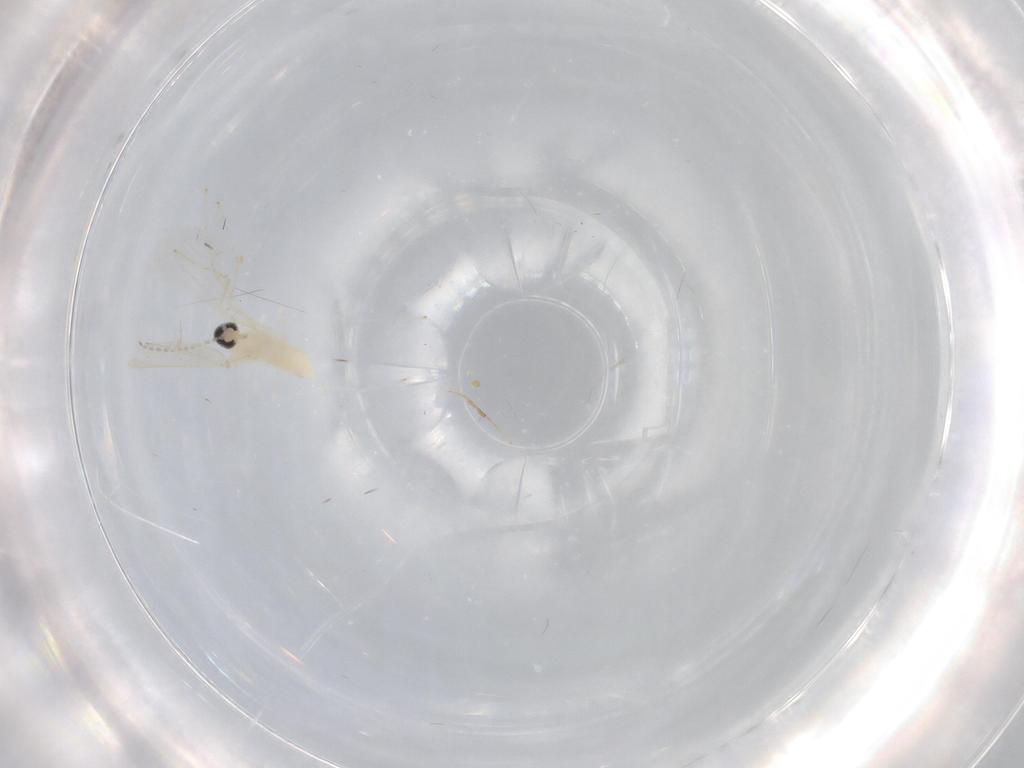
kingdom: Animalia
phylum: Arthropoda
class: Insecta
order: Diptera
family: Cecidomyiidae
